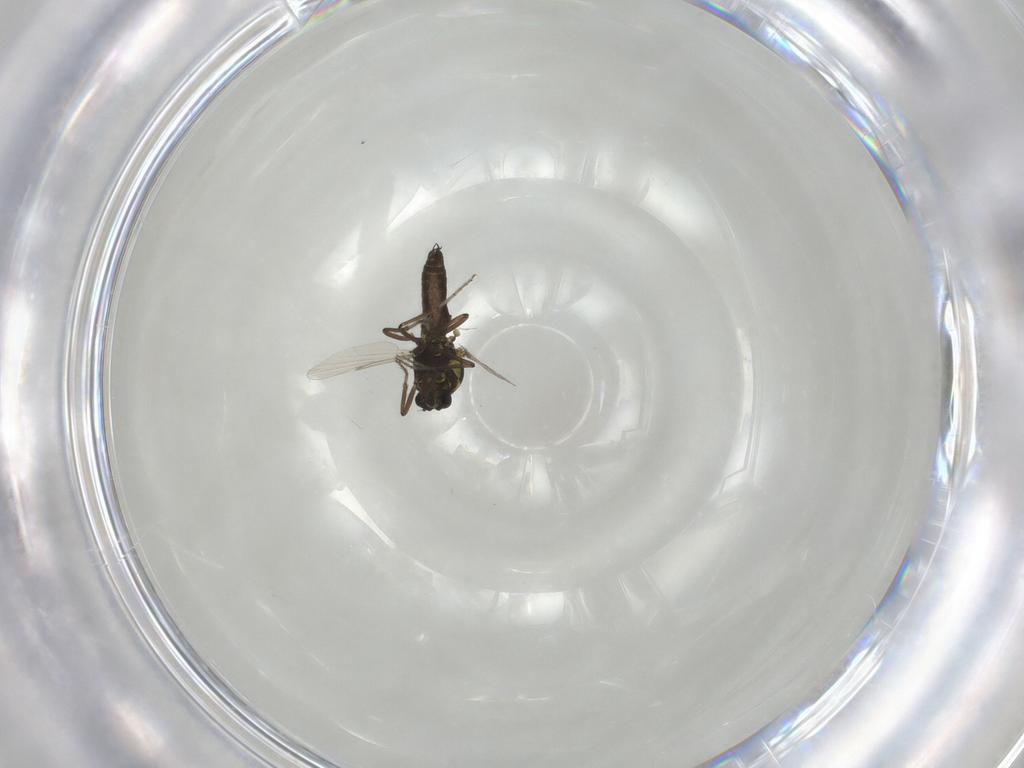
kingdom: Animalia
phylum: Arthropoda
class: Insecta
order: Diptera
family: Ceratopogonidae
